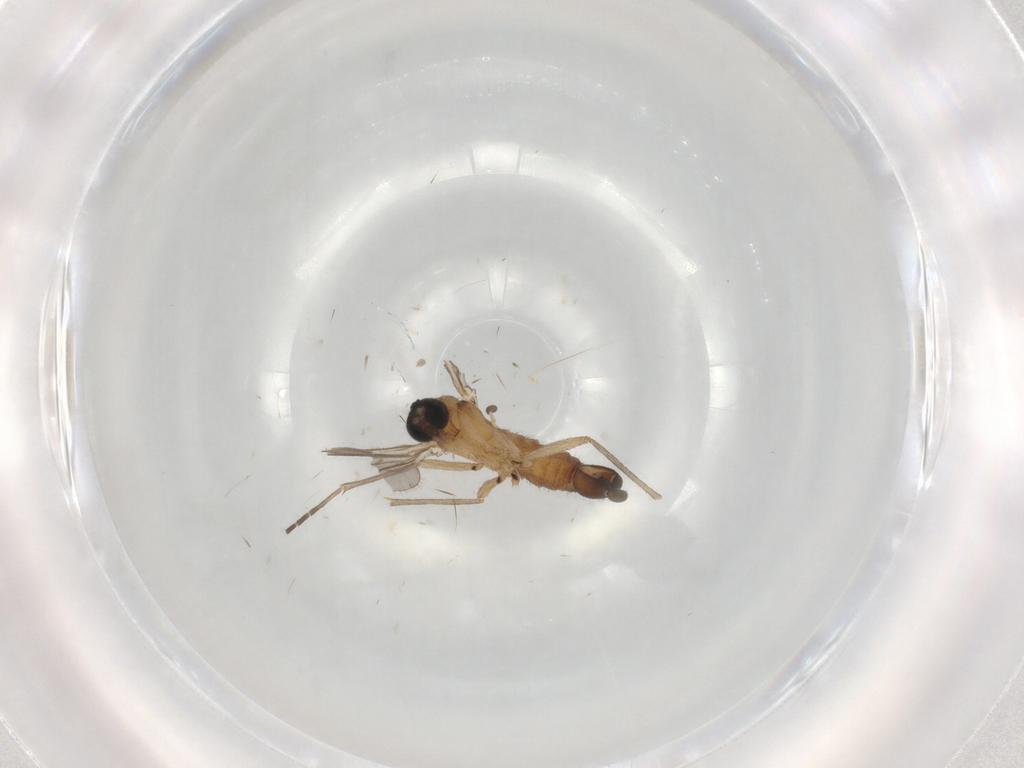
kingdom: Animalia
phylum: Arthropoda
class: Insecta
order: Diptera
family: Sciaridae
